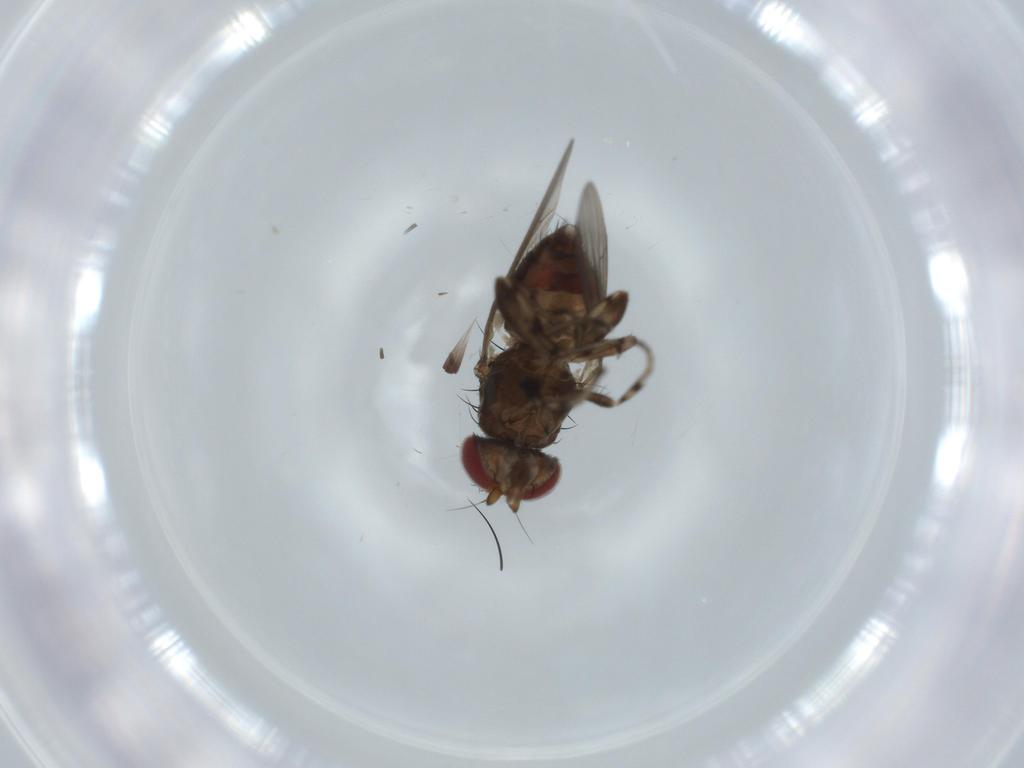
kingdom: Animalia
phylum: Arthropoda
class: Insecta
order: Diptera
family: Heleomyzidae
